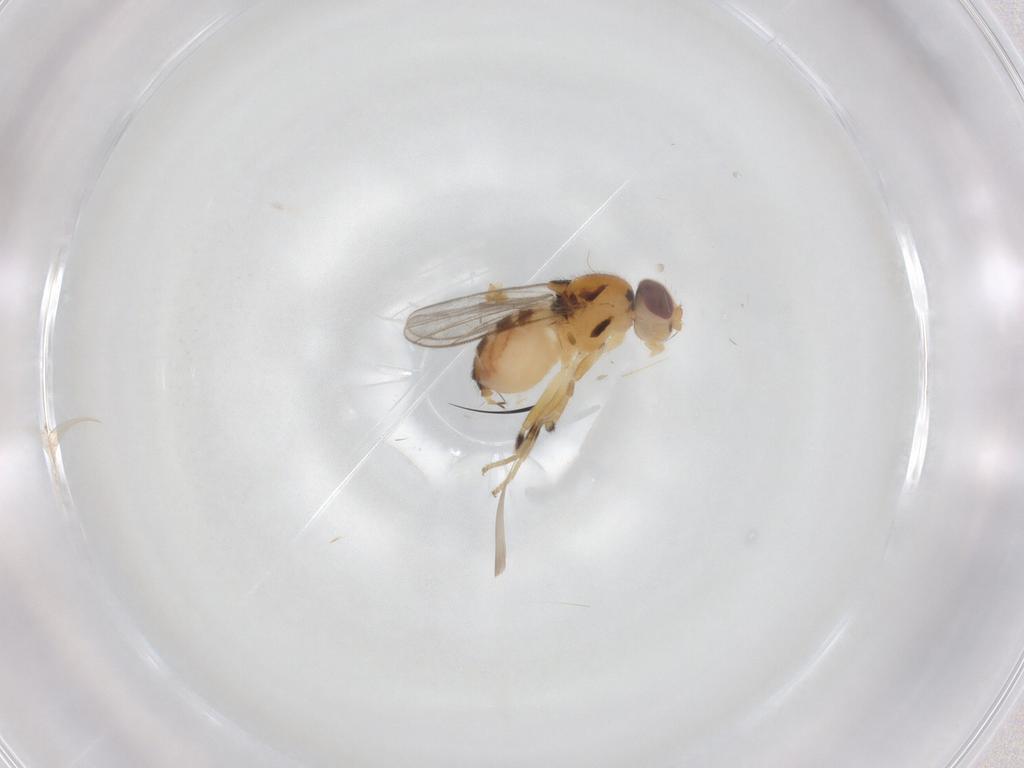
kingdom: Animalia
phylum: Arthropoda
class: Insecta
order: Diptera
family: Chloropidae
